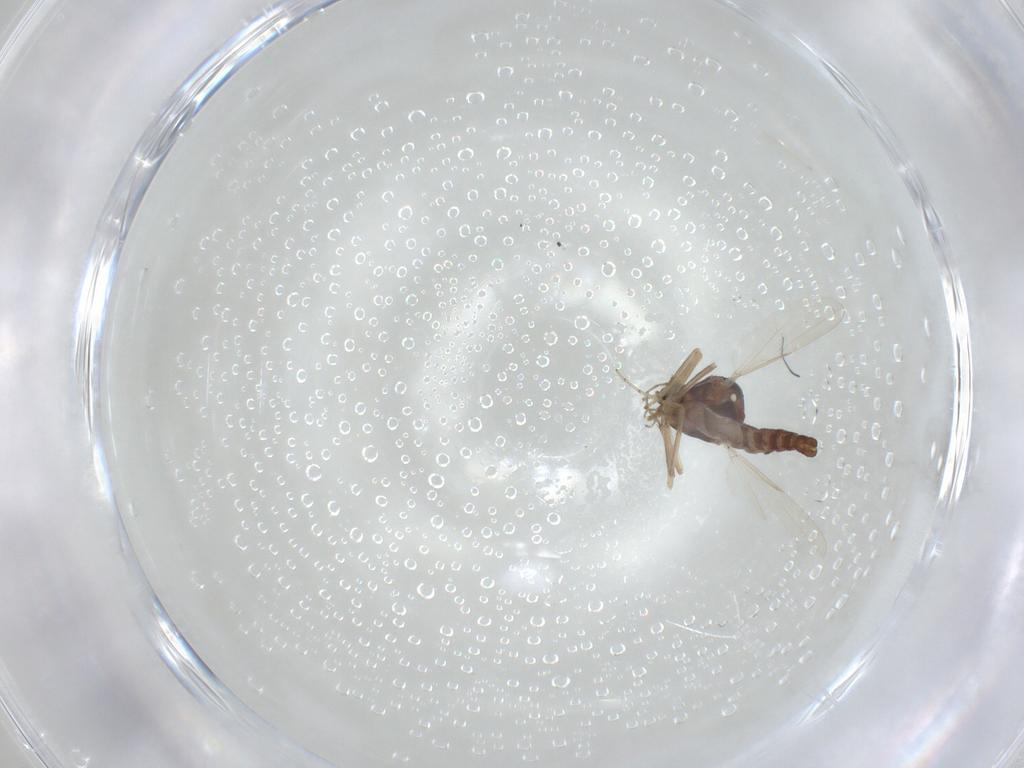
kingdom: Animalia
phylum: Arthropoda
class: Insecta
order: Diptera
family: Ceratopogonidae
